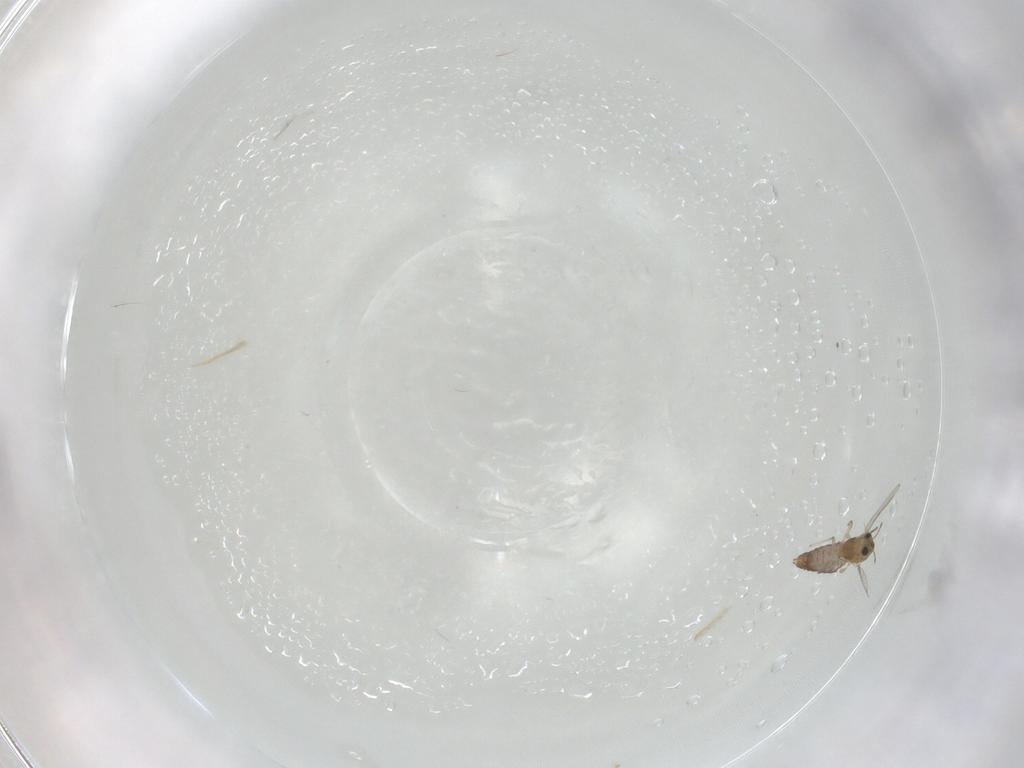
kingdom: Animalia
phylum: Arthropoda
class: Insecta
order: Diptera
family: Chironomidae
